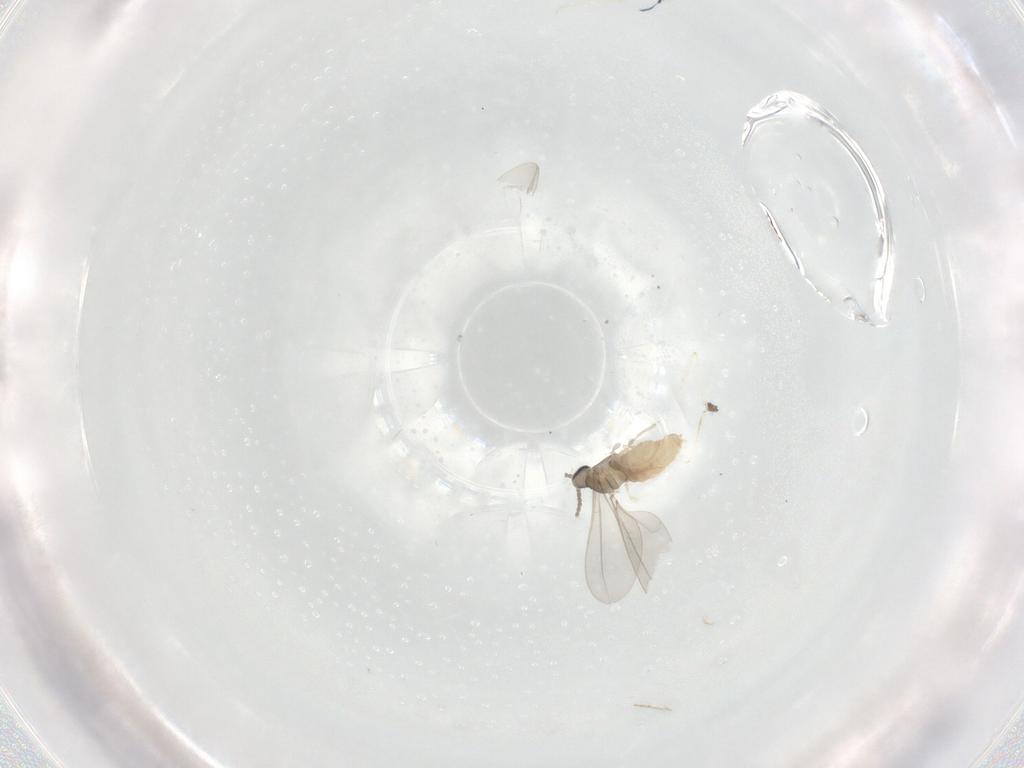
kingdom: Animalia
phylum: Arthropoda
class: Insecta
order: Diptera
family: Cecidomyiidae
